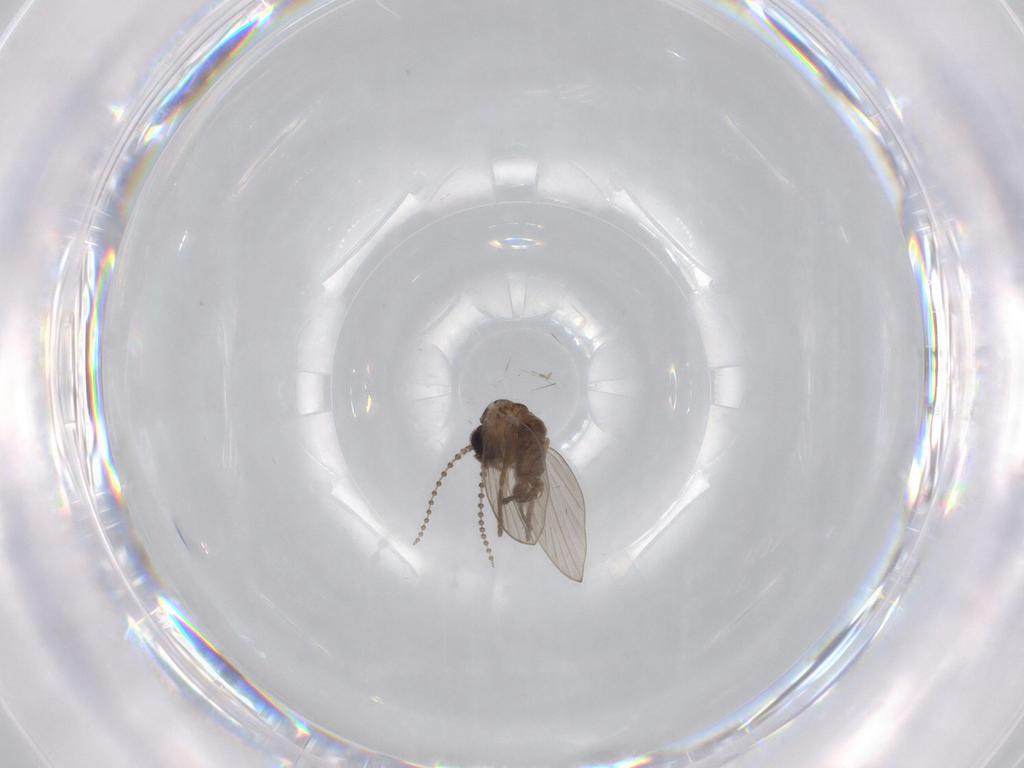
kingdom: Animalia
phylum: Arthropoda
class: Insecta
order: Diptera
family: Psychodidae
